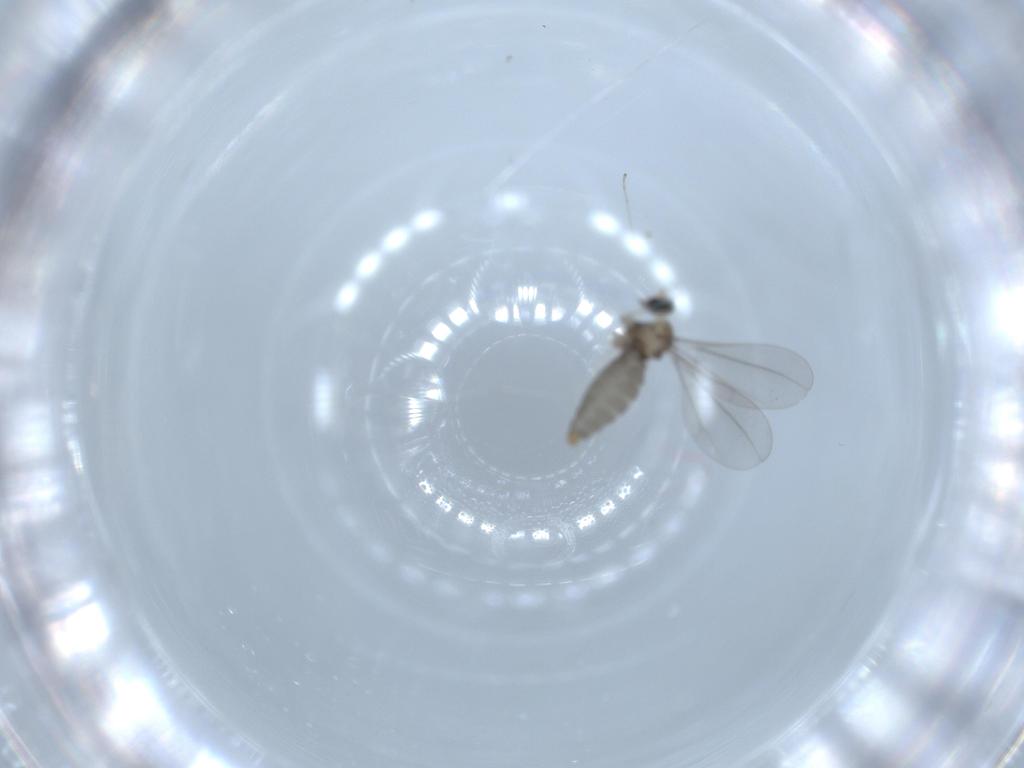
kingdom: Animalia
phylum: Arthropoda
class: Insecta
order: Diptera
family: Cecidomyiidae
